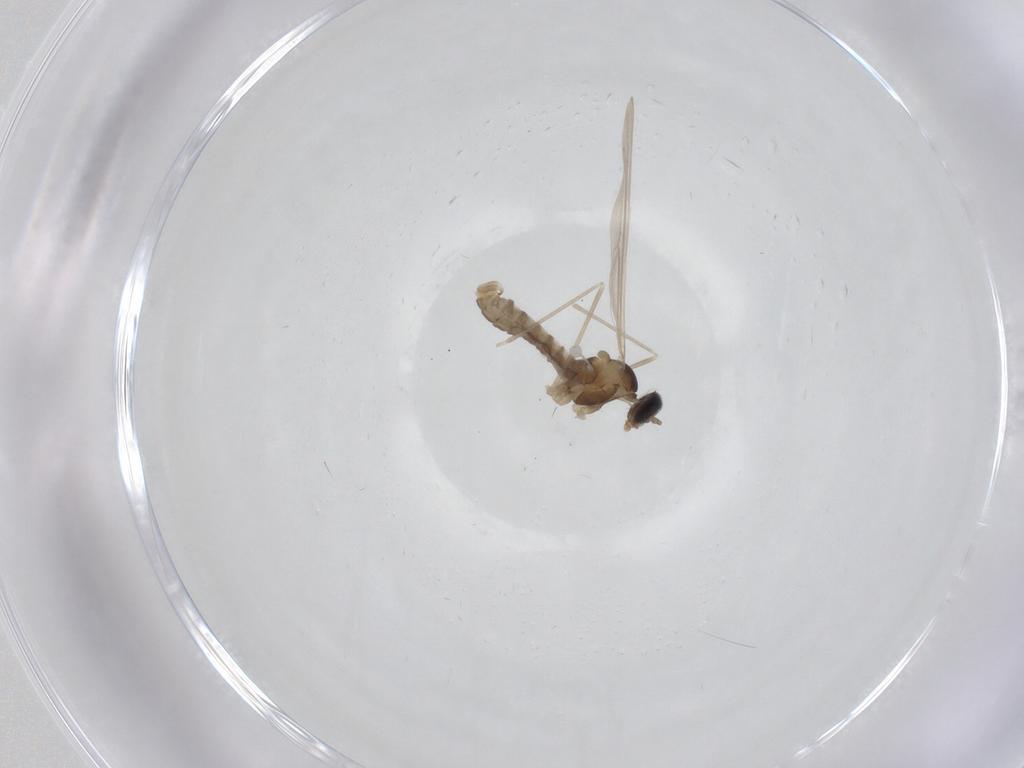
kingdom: Animalia
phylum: Arthropoda
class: Insecta
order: Diptera
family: Cecidomyiidae
